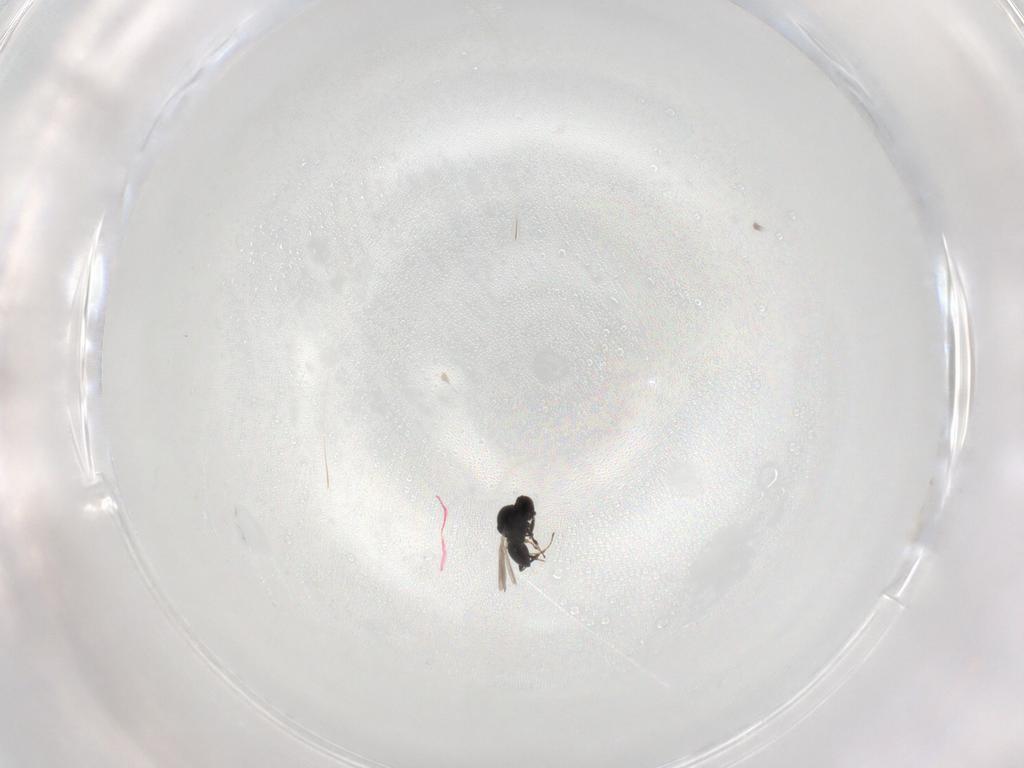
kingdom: Animalia
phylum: Arthropoda
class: Insecta
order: Hymenoptera
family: Platygastridae
